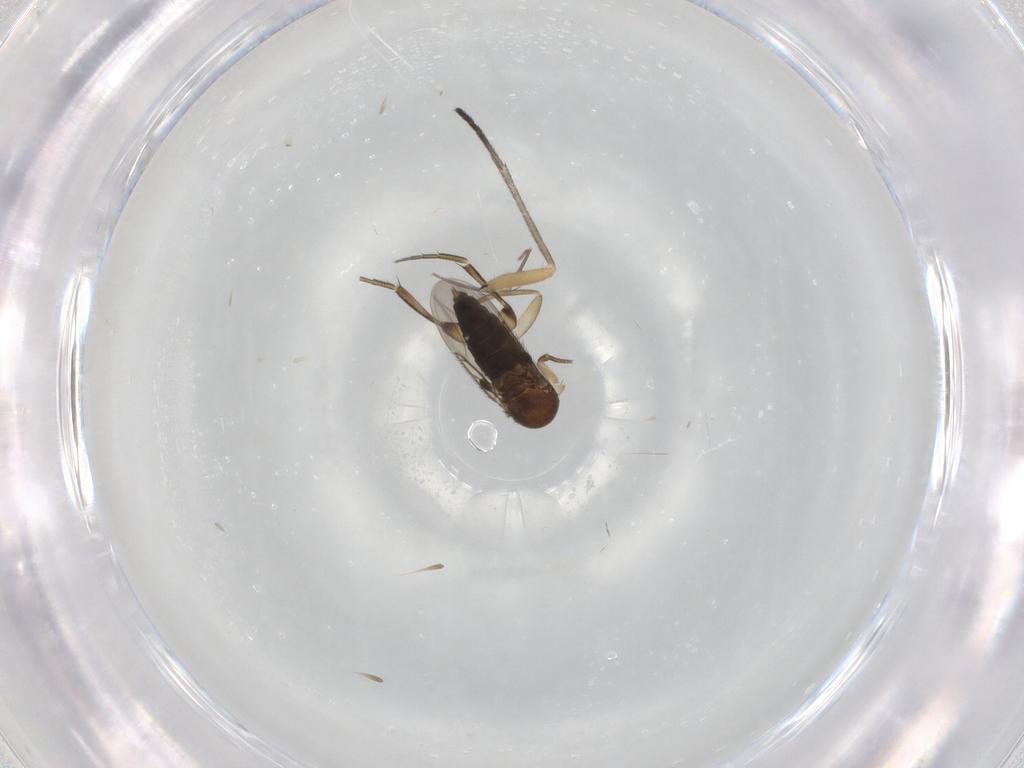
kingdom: Animalia
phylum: Arthropoda
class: Insecta
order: Diptera
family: Phoridae
